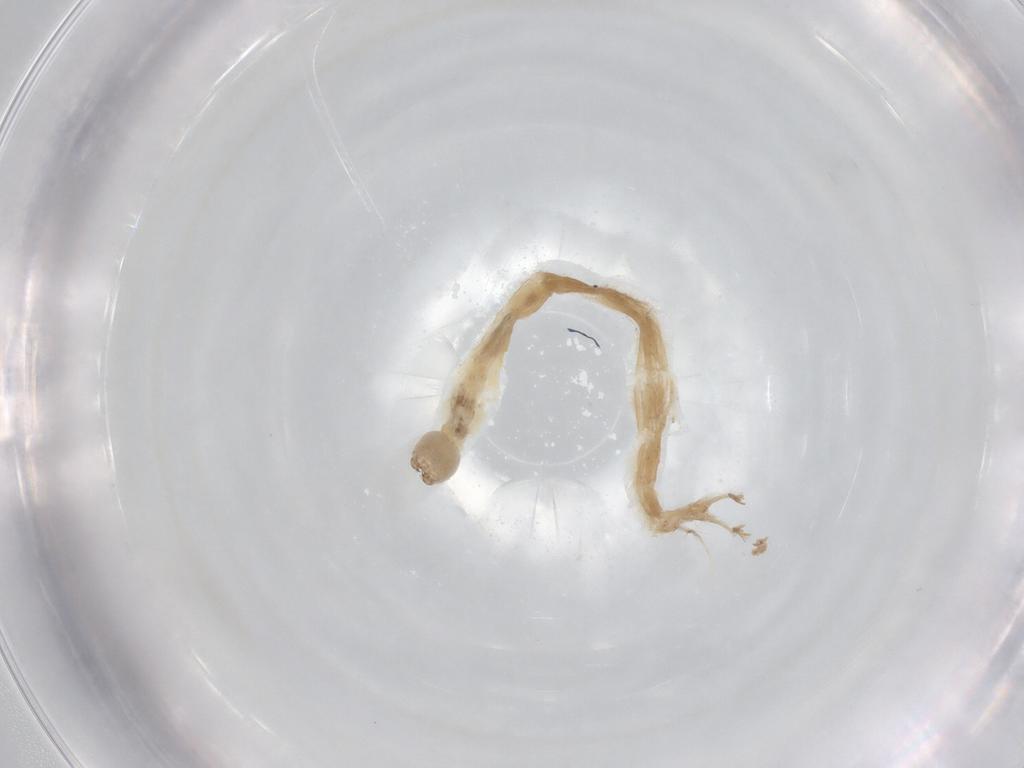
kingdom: Animalia
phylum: Arthropoda
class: Insecta
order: Diptera
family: Chironomidae
